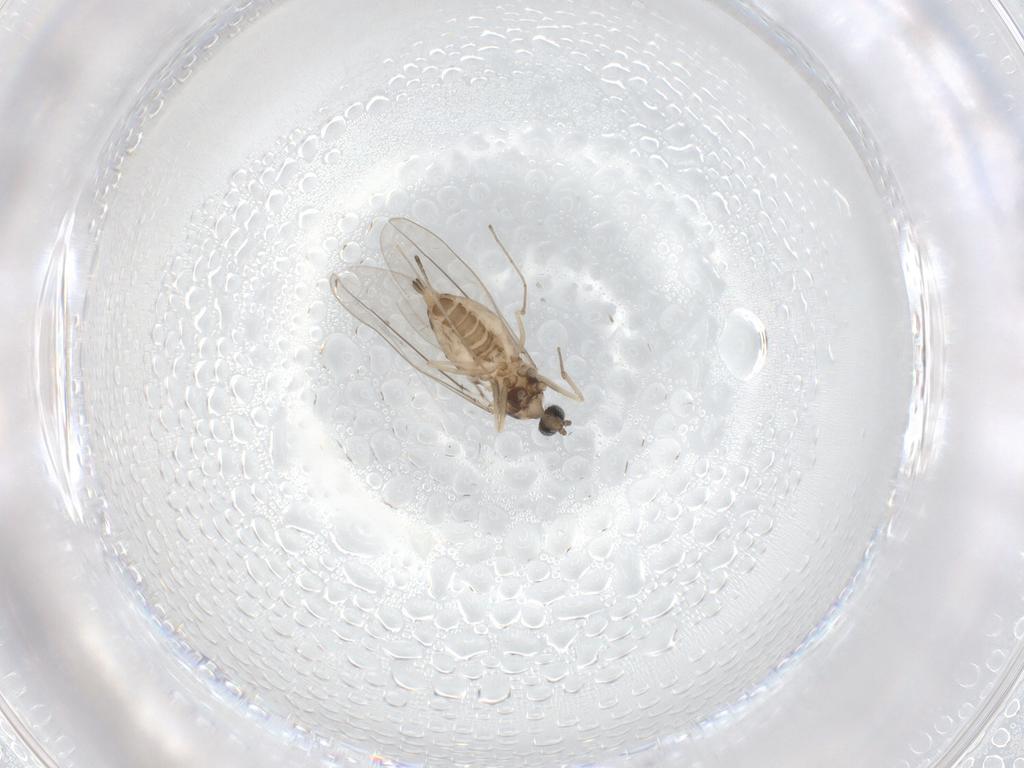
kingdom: Animalia
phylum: Arthropoda
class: Insecta
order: Diptera
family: Cecidomyiidae
